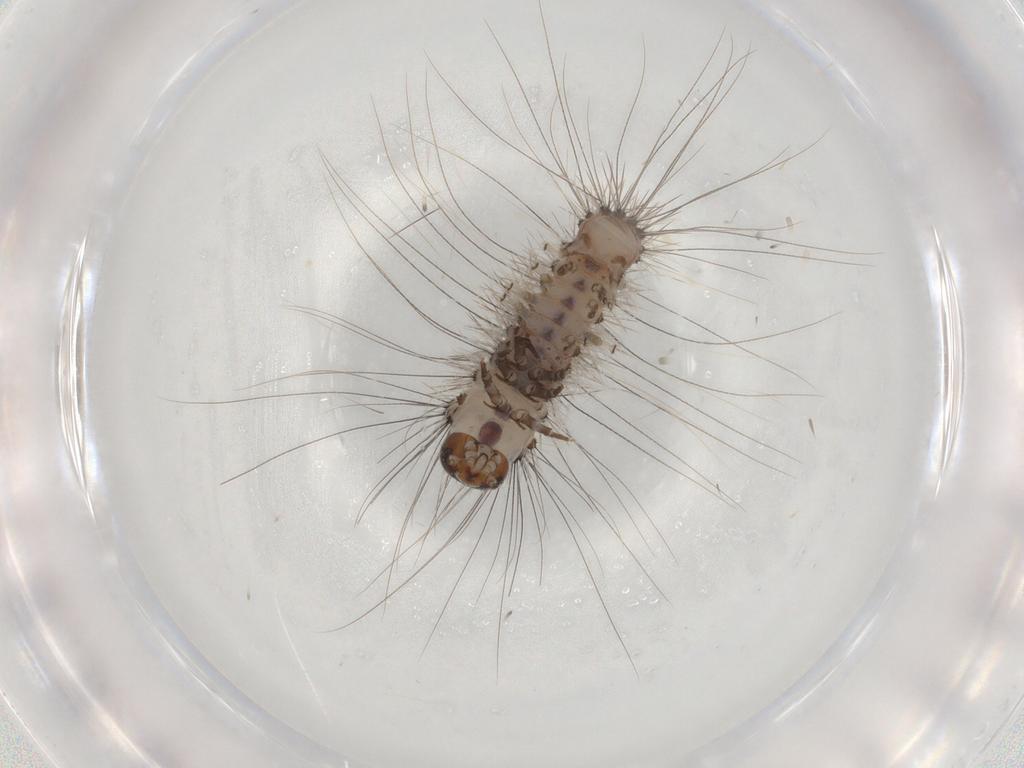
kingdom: Animalia
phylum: Arthropoda
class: Insecta
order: Lepidoptera
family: Scythrididae
